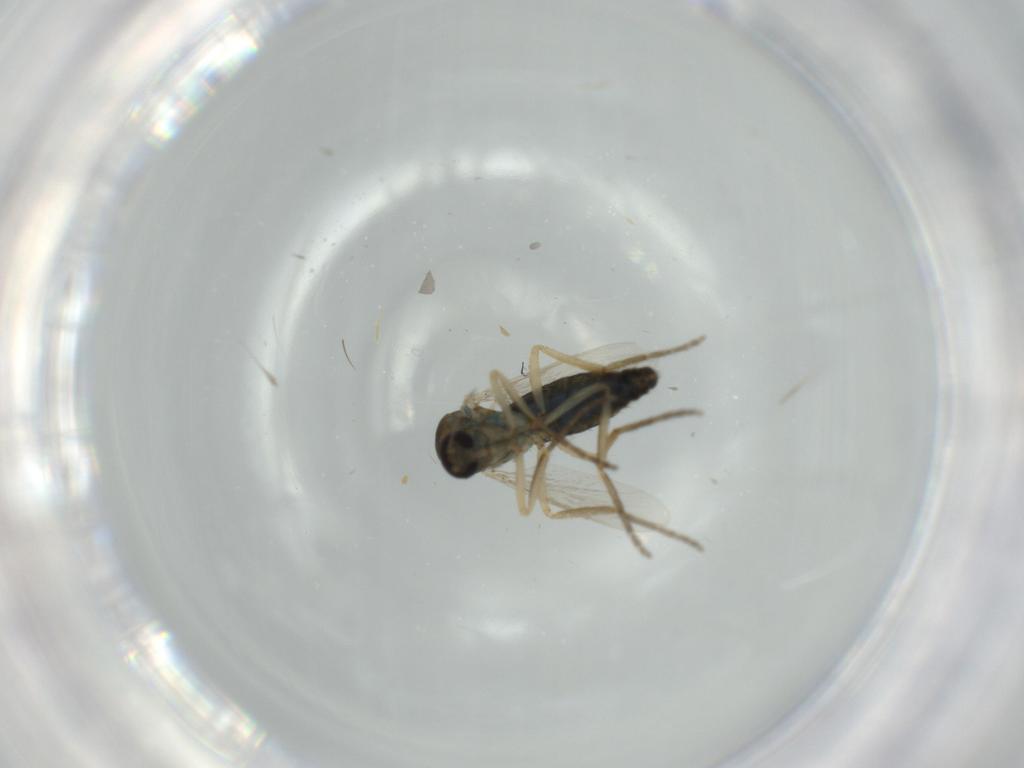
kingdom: Animalia
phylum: Arthropoda
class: Insecta
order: Diptera
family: Ceratopogonidae
